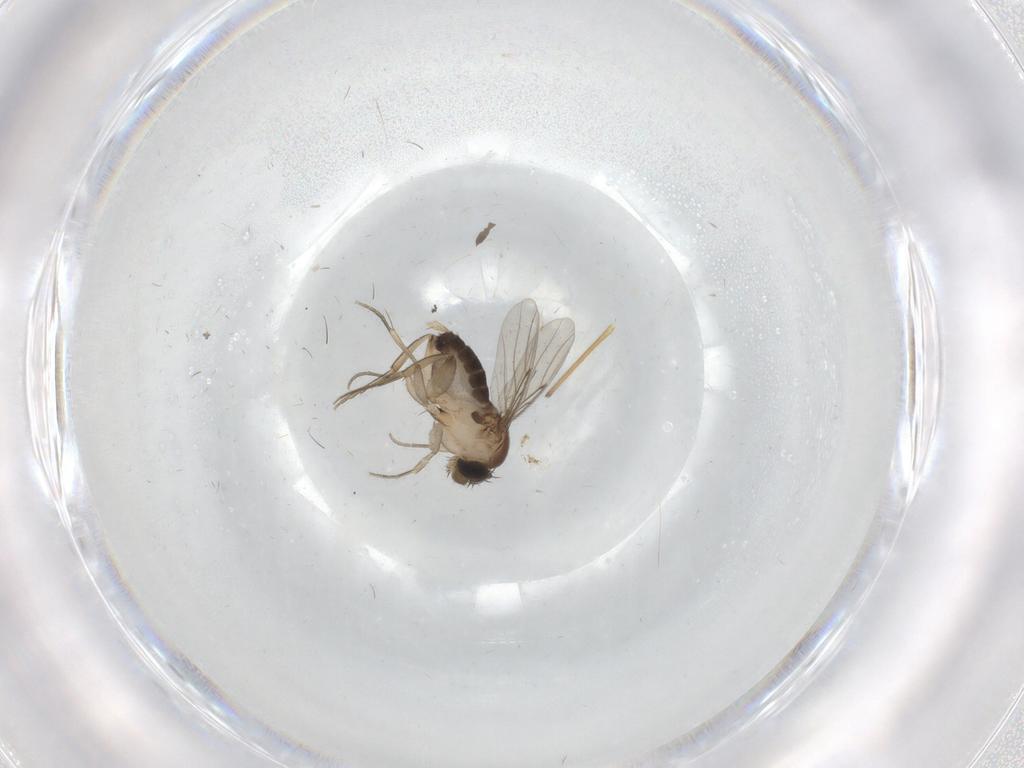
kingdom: Animalia
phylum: Arthropoda
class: Insecta
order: Diptera
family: Phoridae
